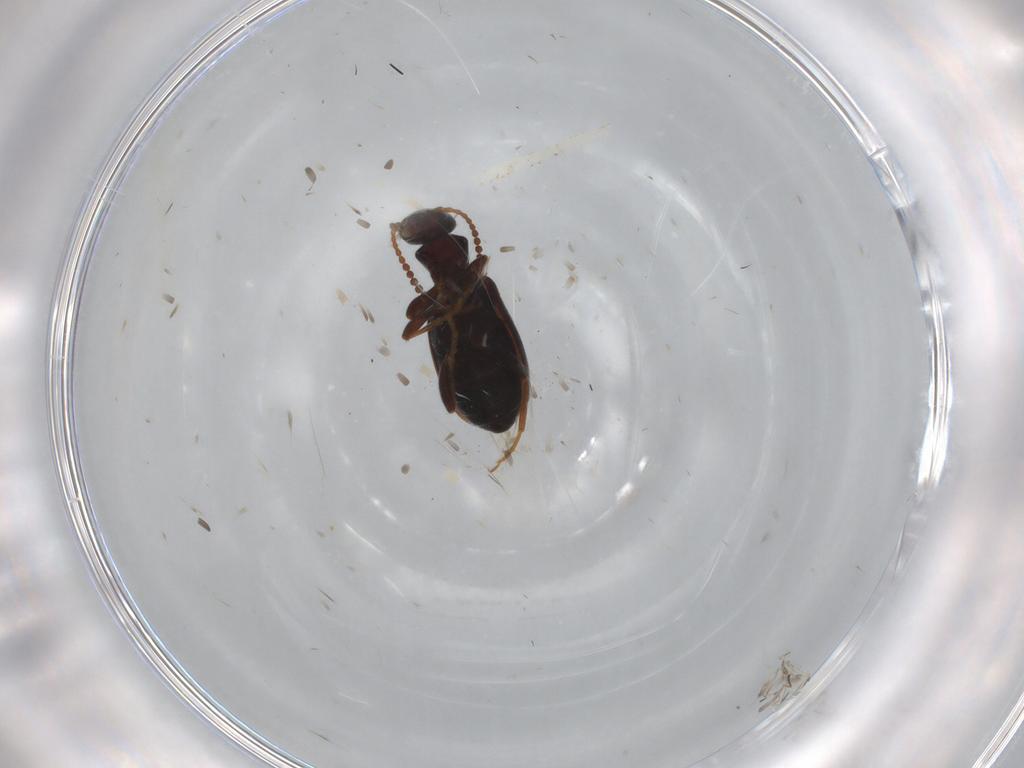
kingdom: Animalia
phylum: Arthropoda
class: Insecta
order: Coleoptera
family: Anthicidae
